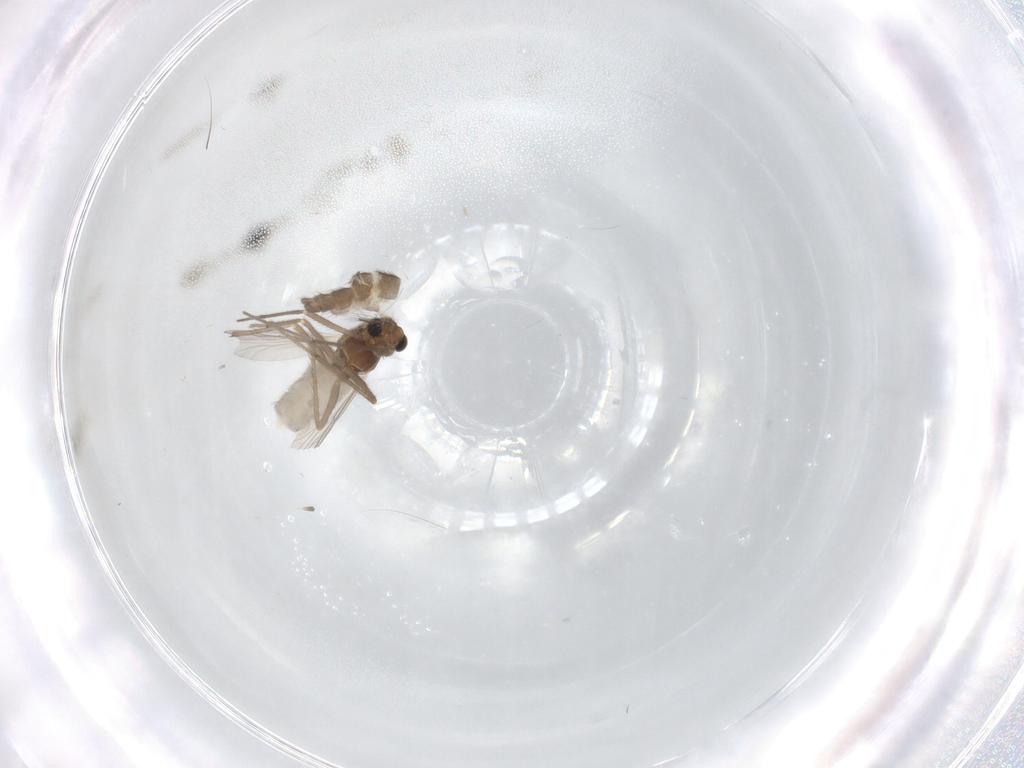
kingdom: Animalia
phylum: Arthropoda
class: Insecta
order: Diptera
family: Chironomidae
